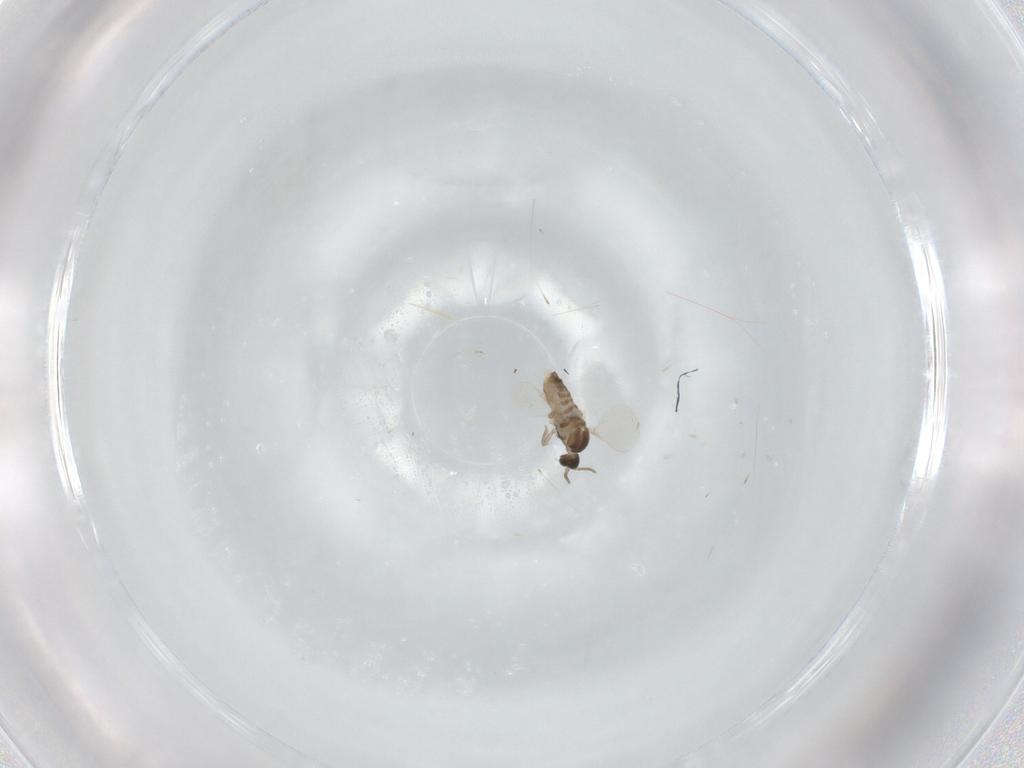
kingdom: Animalia
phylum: Arthropoda
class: Insecta
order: Diptera
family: Cecidomyiidae
